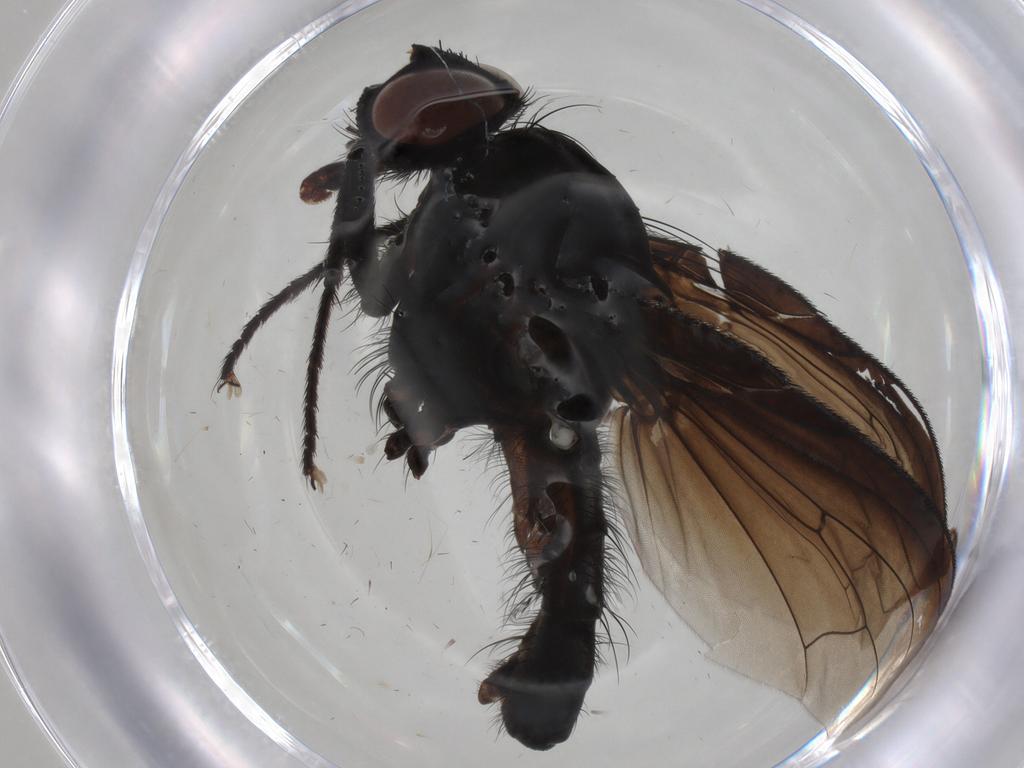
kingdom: Animalia
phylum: Arthropoda
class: Insecta
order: Diptera
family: Anthomyiidae
